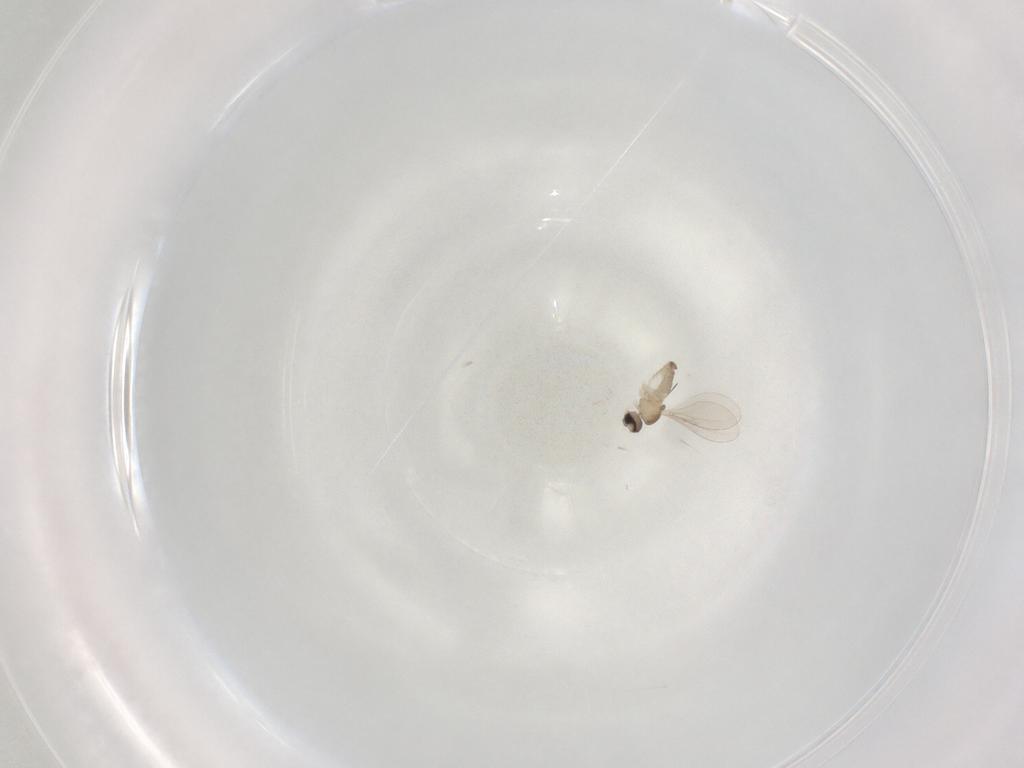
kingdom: Animalia
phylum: Arthropoda
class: Insecta
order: Diptera
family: Cecidomyiidae
